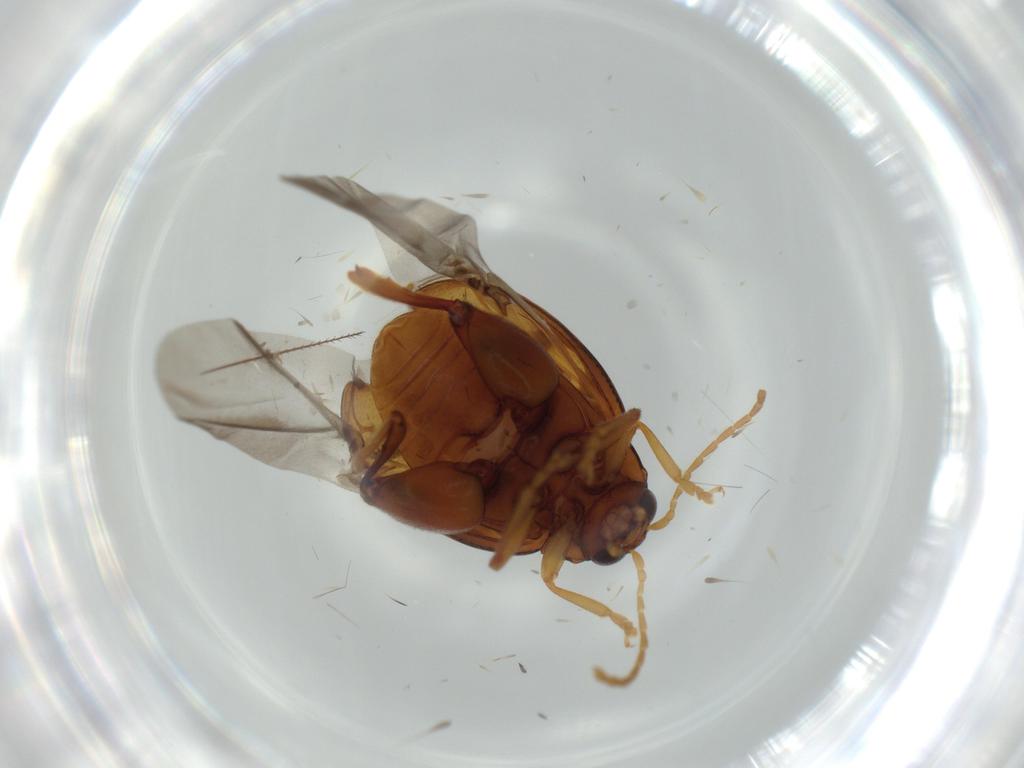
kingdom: Animalia
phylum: Arthropoda
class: Insecta
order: Coleoptera
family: Chrysomelidae
